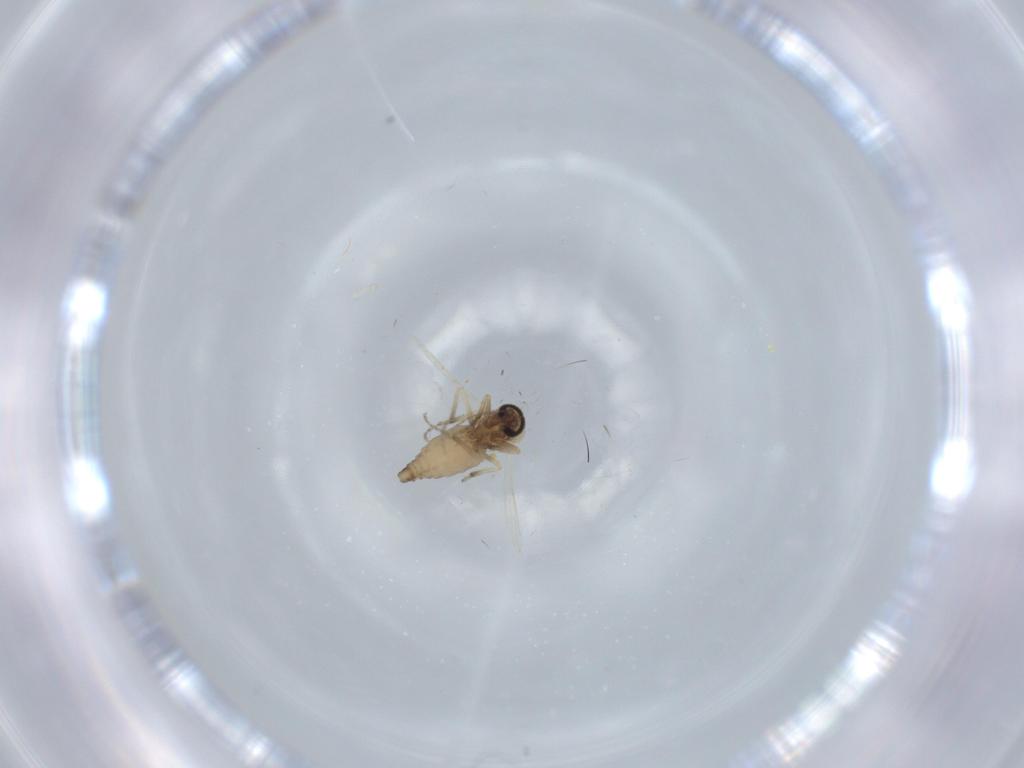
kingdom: Animalia
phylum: Arthropoda
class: Insecta
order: Diptera
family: Ceratopogonidae
